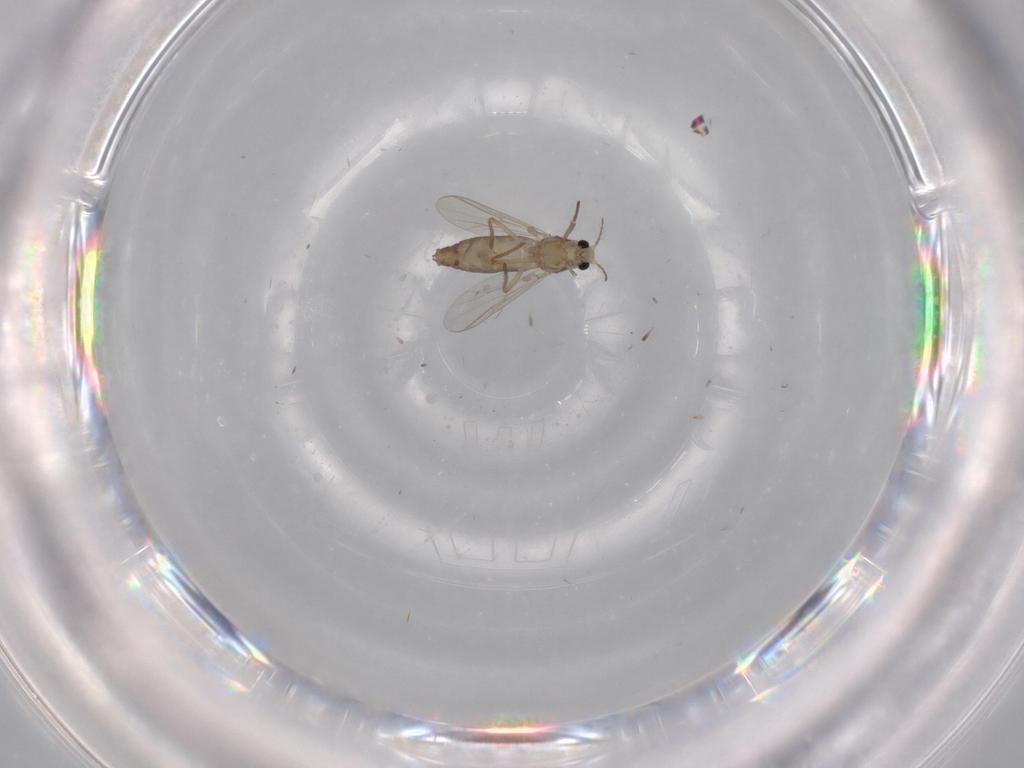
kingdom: Animalia
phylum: Arthropoda
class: Insecta
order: Diptera
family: Chironomidae
